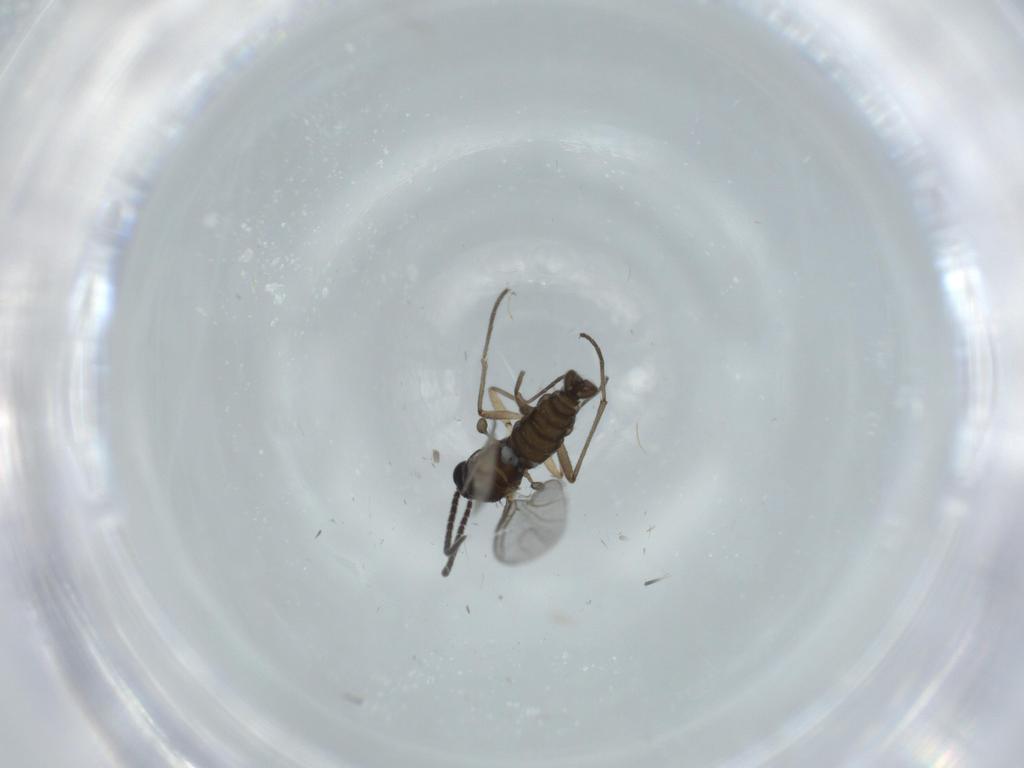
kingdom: Animalia
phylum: Arthropoda
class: Insecta
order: Diptera
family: Sciaridae
